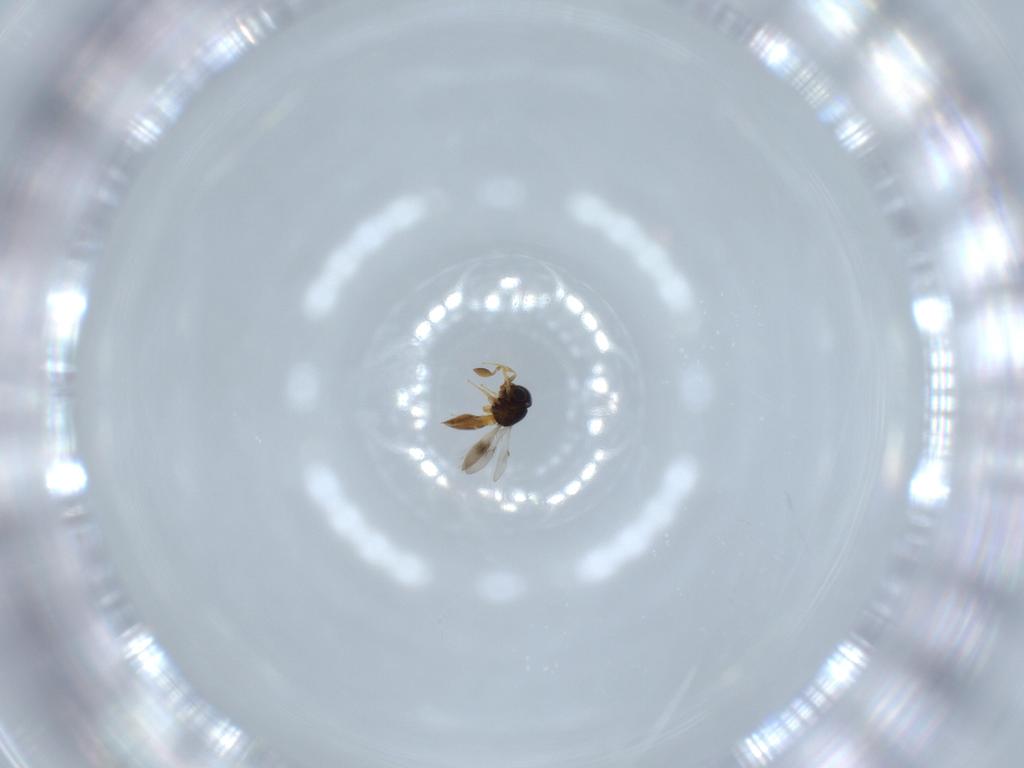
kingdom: Animalia
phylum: Arthropoda
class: Insecta
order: Hymenoptera
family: Scelionidae
